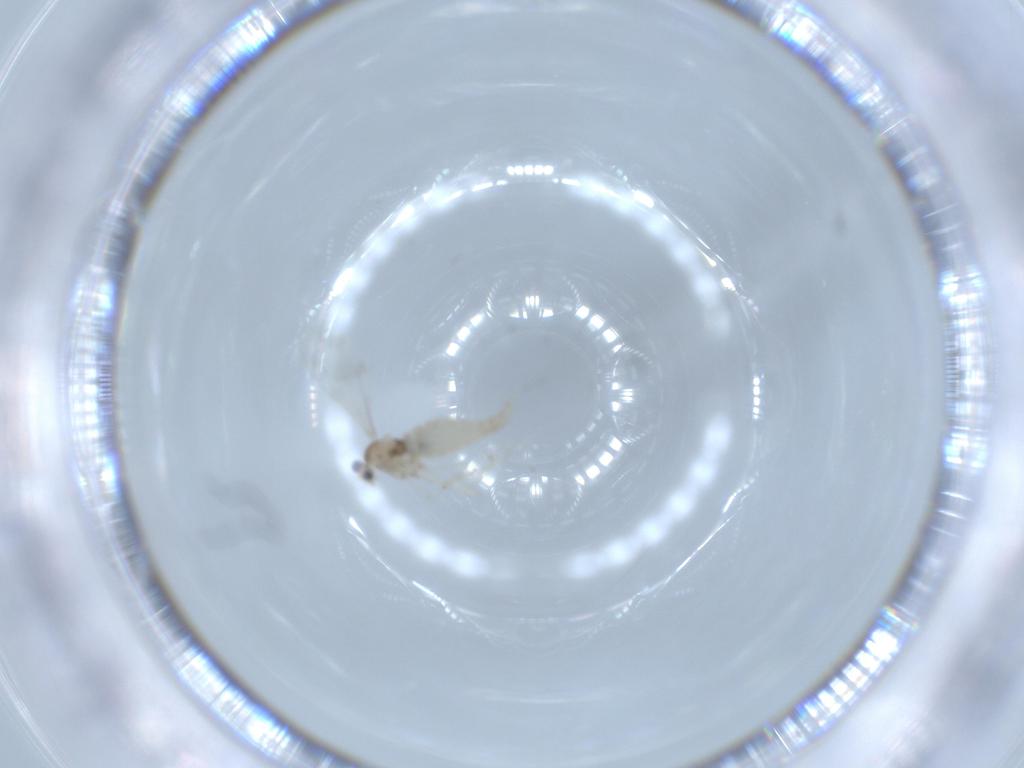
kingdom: Animalia
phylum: Arthropoda
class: Insecta
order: Diptera
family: Cecidomyiidae
